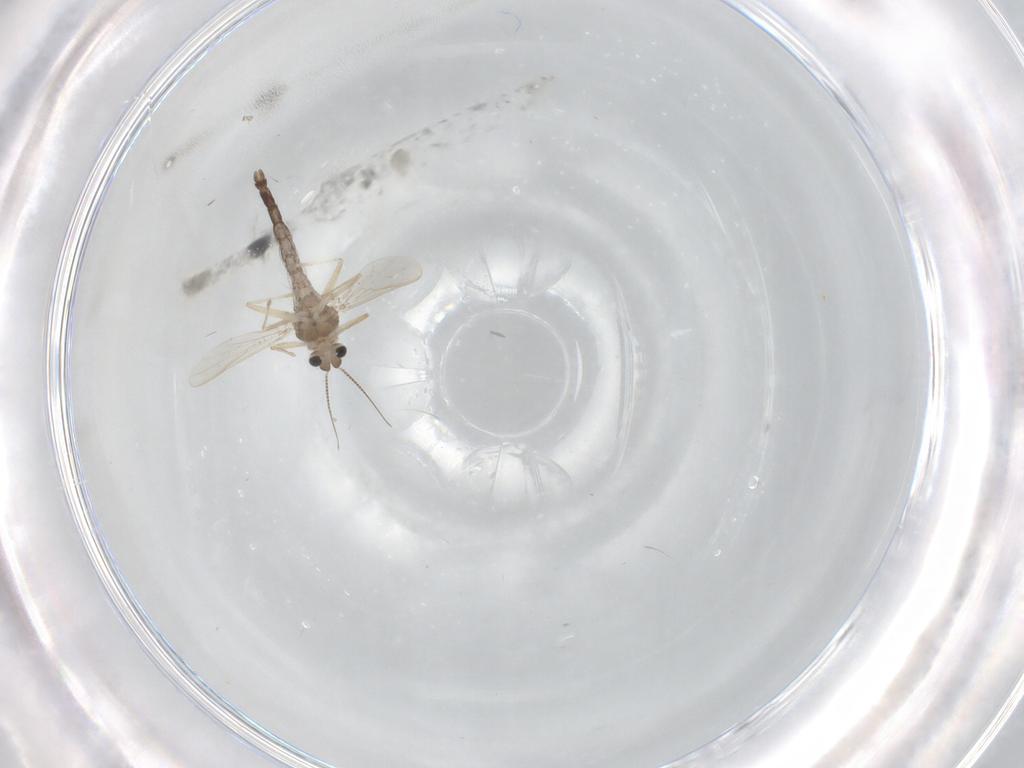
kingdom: Animalia
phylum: Arthropoda
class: Insecta
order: Diptera
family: Chironomidae
